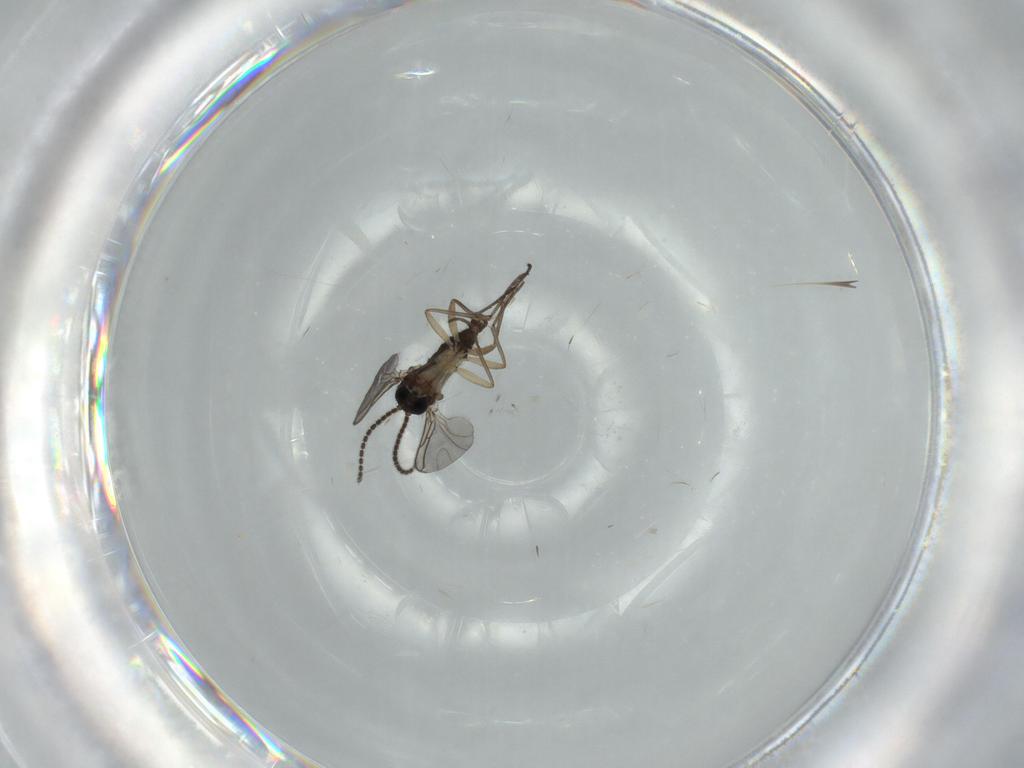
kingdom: Animalia
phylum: Arthropoda
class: Insecta
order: Diptera
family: Sciaridae
